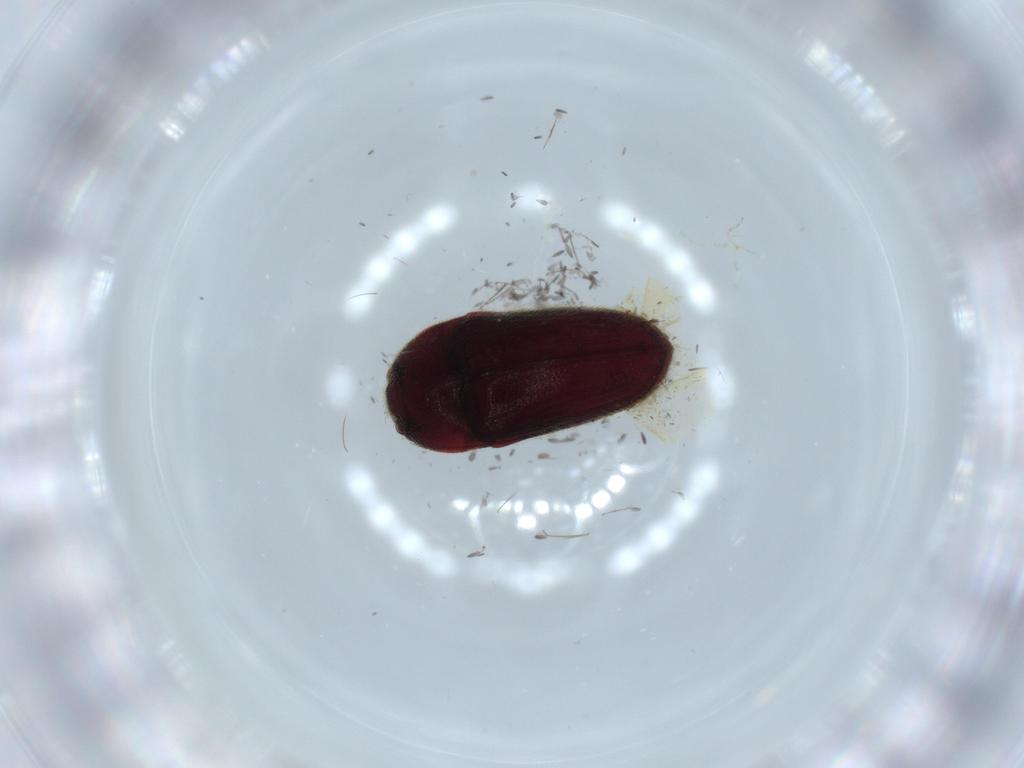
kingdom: Animalia
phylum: Arthropoda
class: Insecta
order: Coleoptera
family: Throscidae
